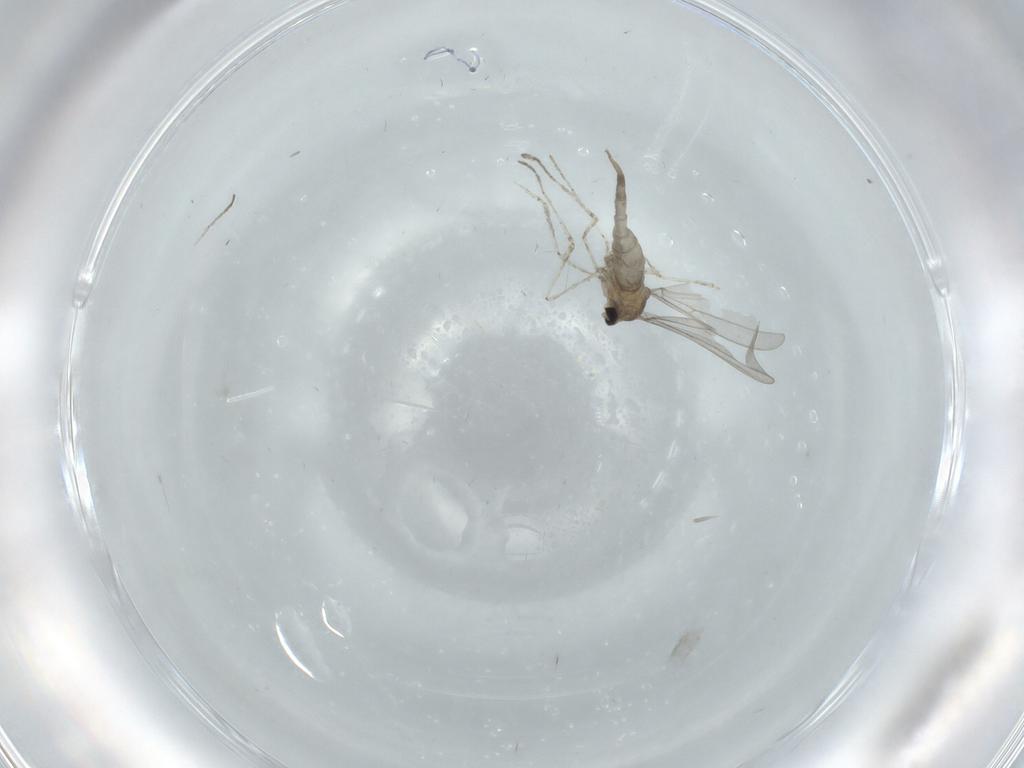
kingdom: Animalia
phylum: Arthropoda
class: Insecta
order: Diptera
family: Cecidomyiidae
